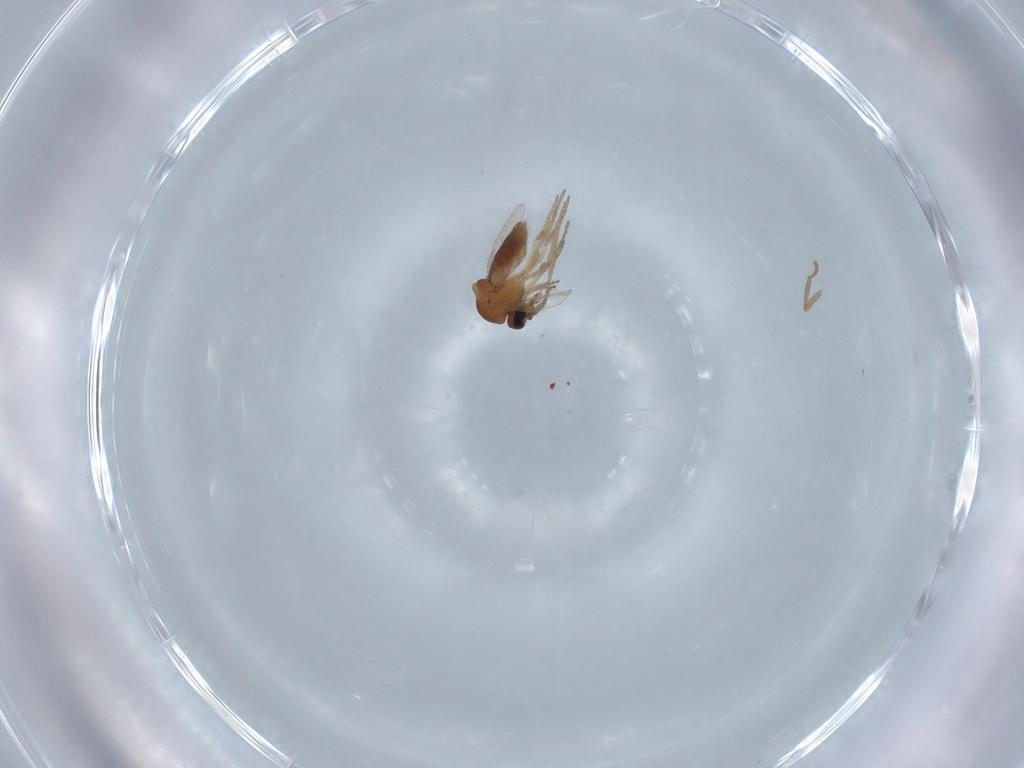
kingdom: Animalia
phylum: Arthropoda
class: Insecta
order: Diptera
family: Ceratopogonidae
